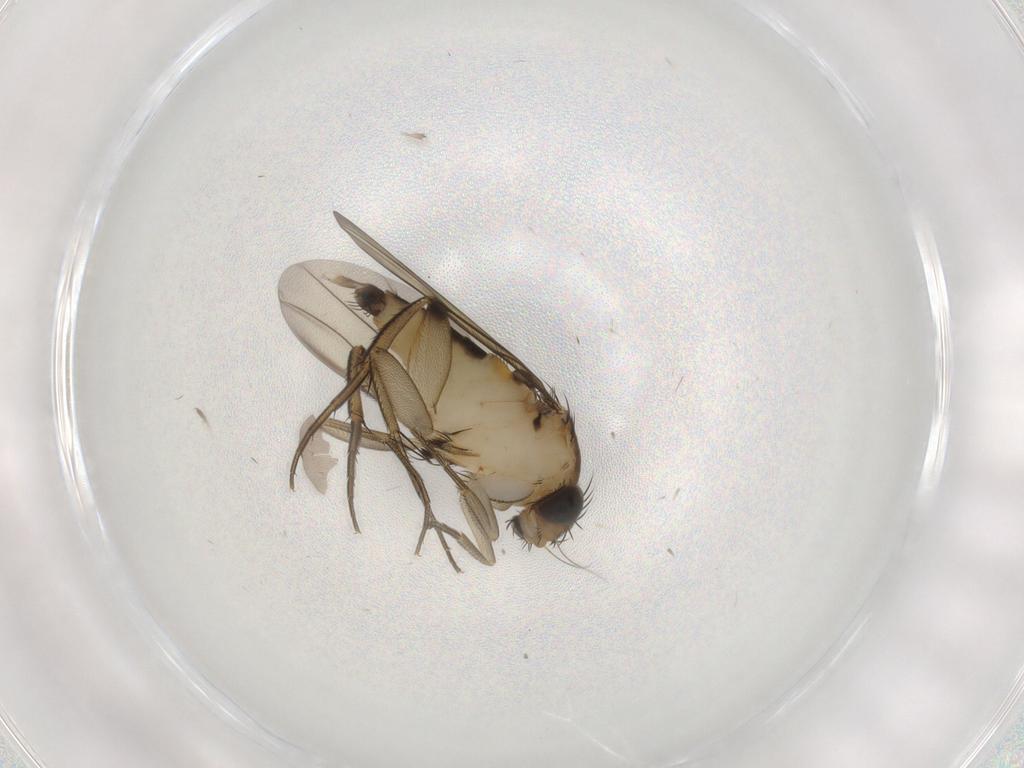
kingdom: Animalia
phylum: Arthropoda
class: Insecta
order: Diptera
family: Phoridae
